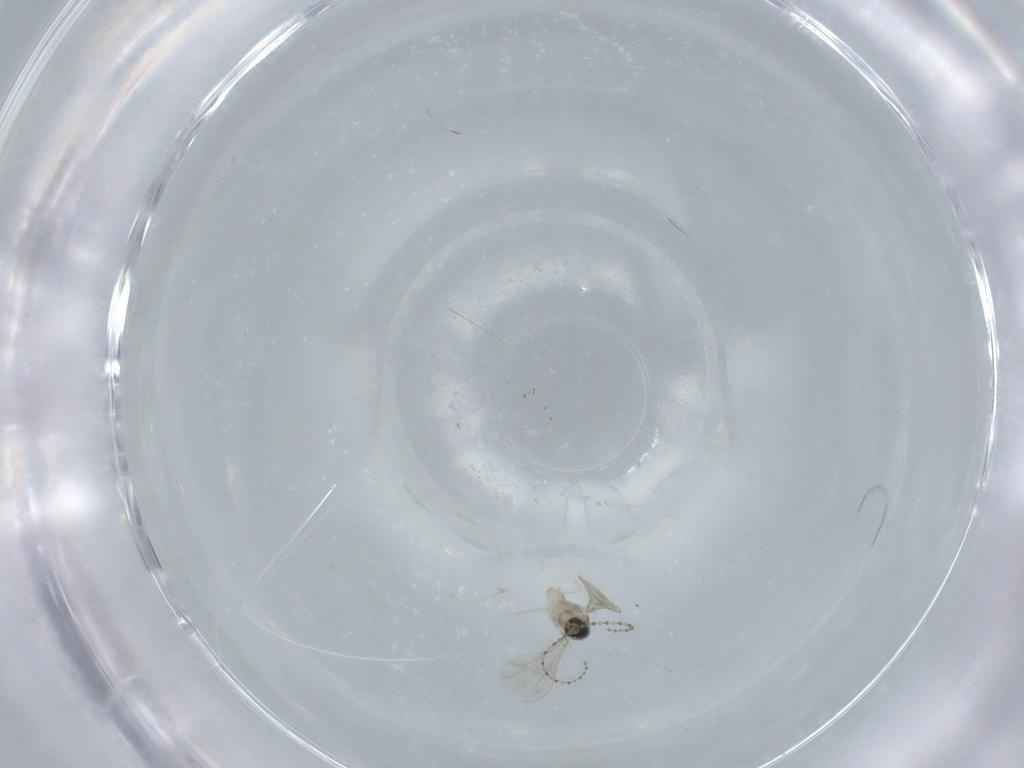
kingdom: Animalia
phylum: Arthropoda
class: Insecta
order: Diptera
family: Cecidomyiidae
